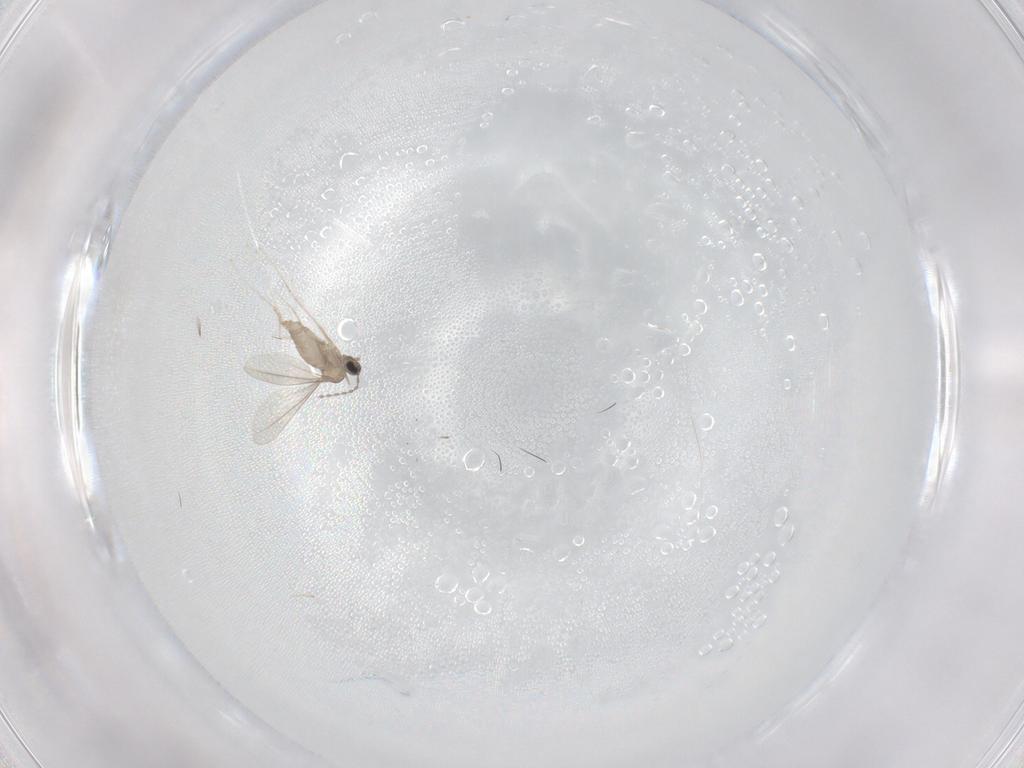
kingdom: Animalia
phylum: Arthropoda
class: Insecta
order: Diptera
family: Cecidomyiidae
